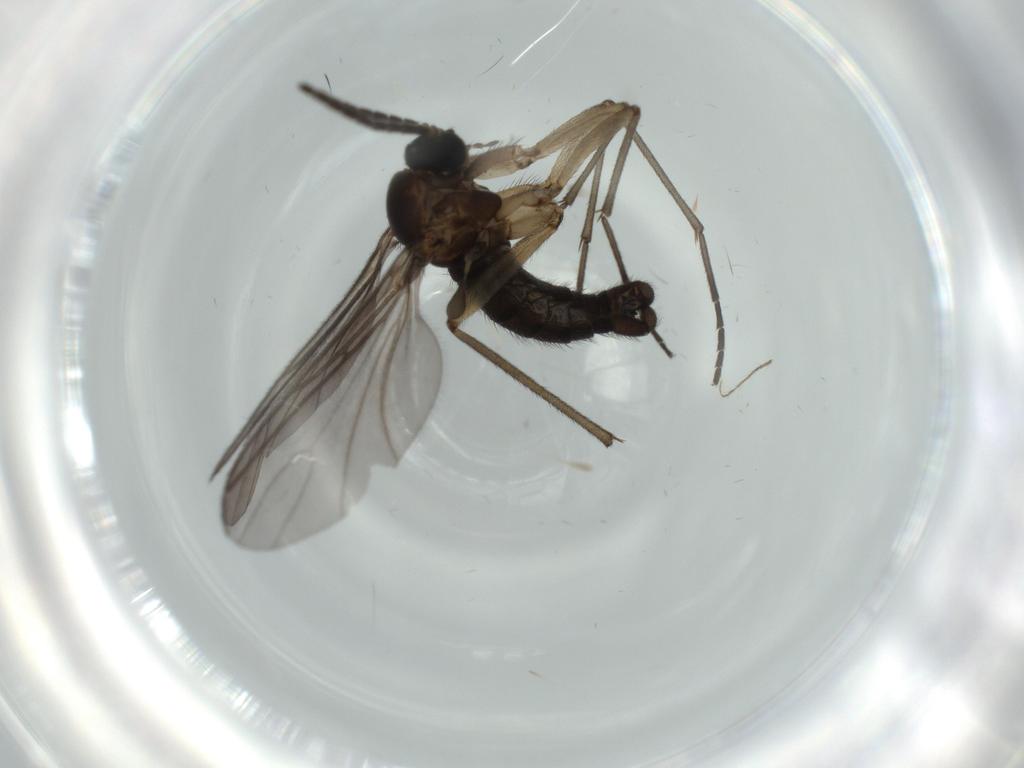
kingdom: Animalia
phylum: Arthropoda
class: Insecta
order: Diptera
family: Sciaridae
